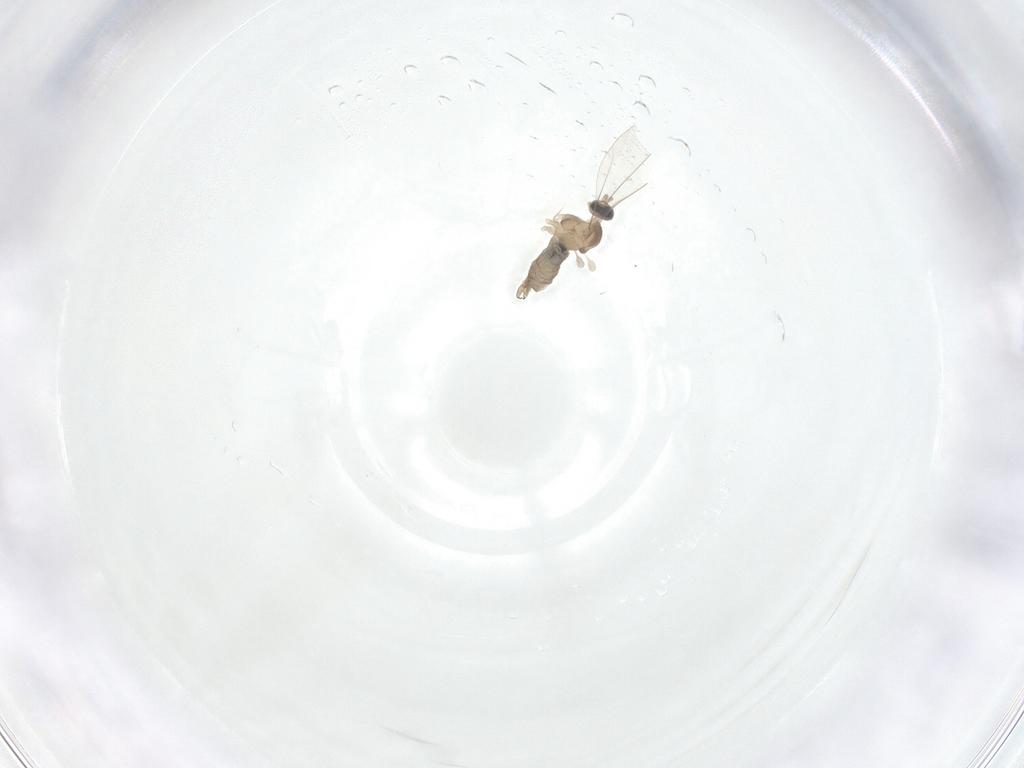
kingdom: Animalia
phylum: Arthropoda
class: Insecta
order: Diptera
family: Cecidomyiidae
